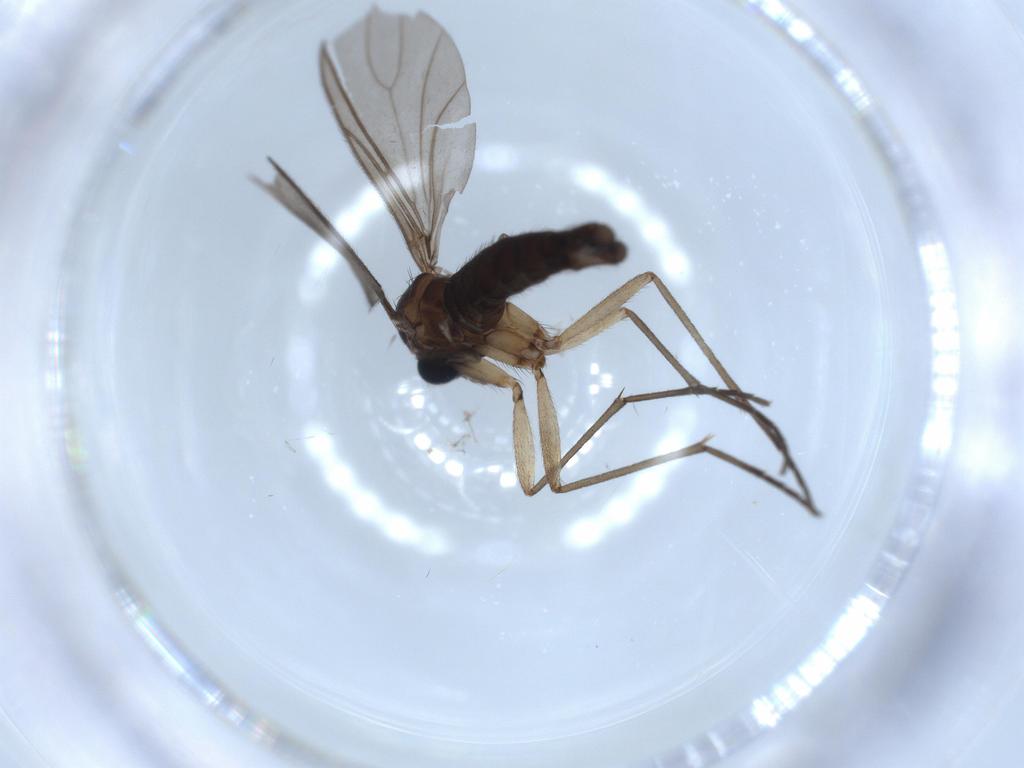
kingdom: Animalia
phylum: Arthropoda
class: Insecta
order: Diptera
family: Sciaridae
